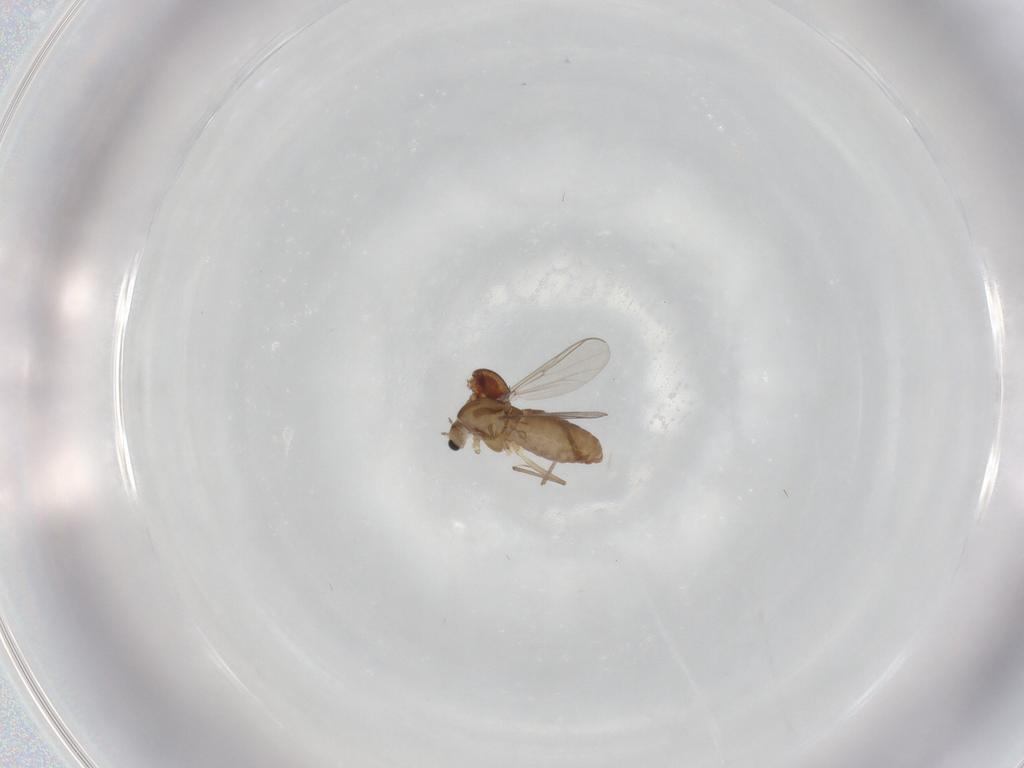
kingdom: Animalia
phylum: Arthropoda
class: Insecta
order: Diptera
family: Chironomidae
